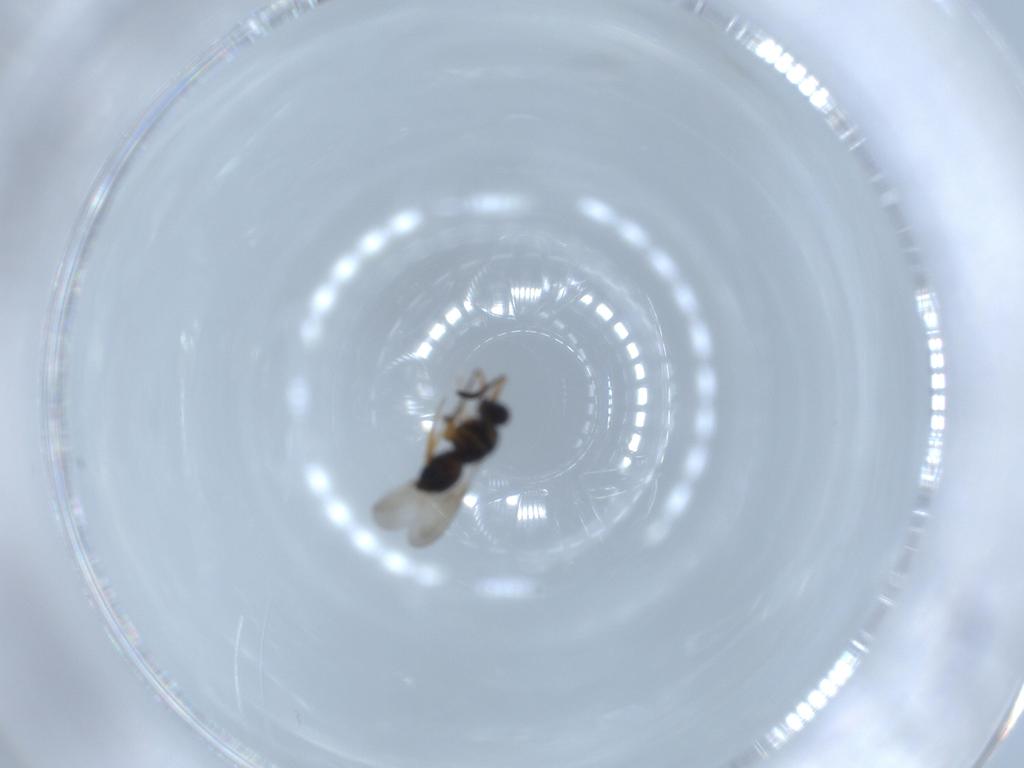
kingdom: Animalia
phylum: Arthropoda
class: Insecta
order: Hymenoptera
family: Ceraphronidae
